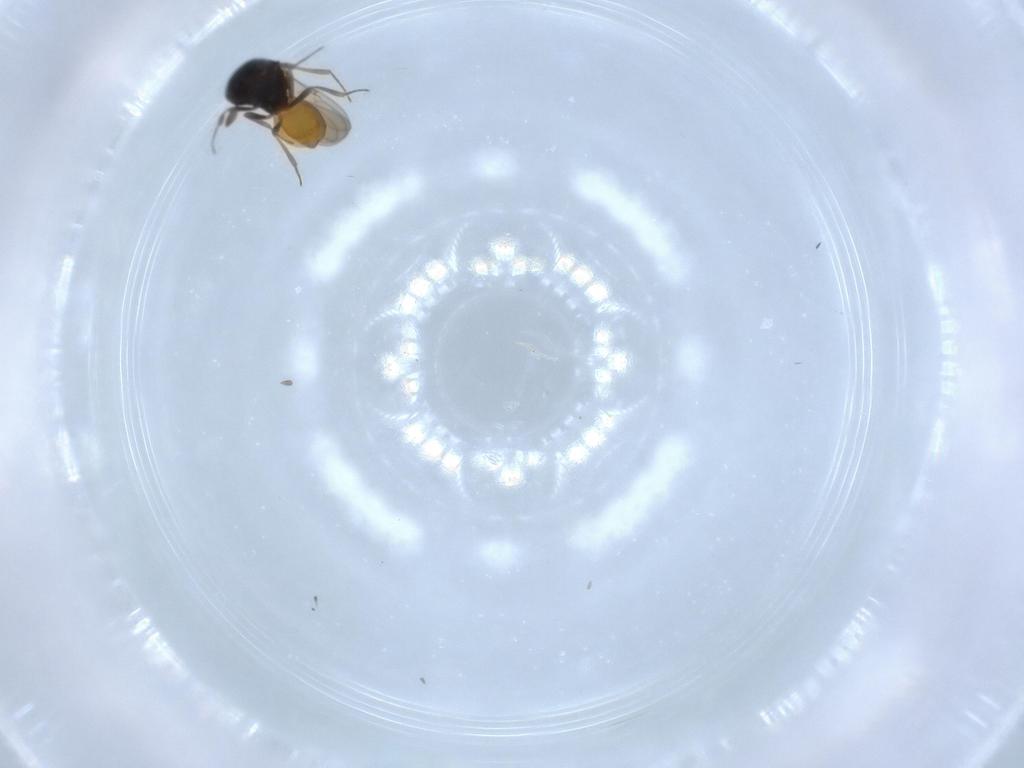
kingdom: Animalia
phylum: Arthropoda
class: Insecta
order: Hymenoptera
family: Scelionidae
